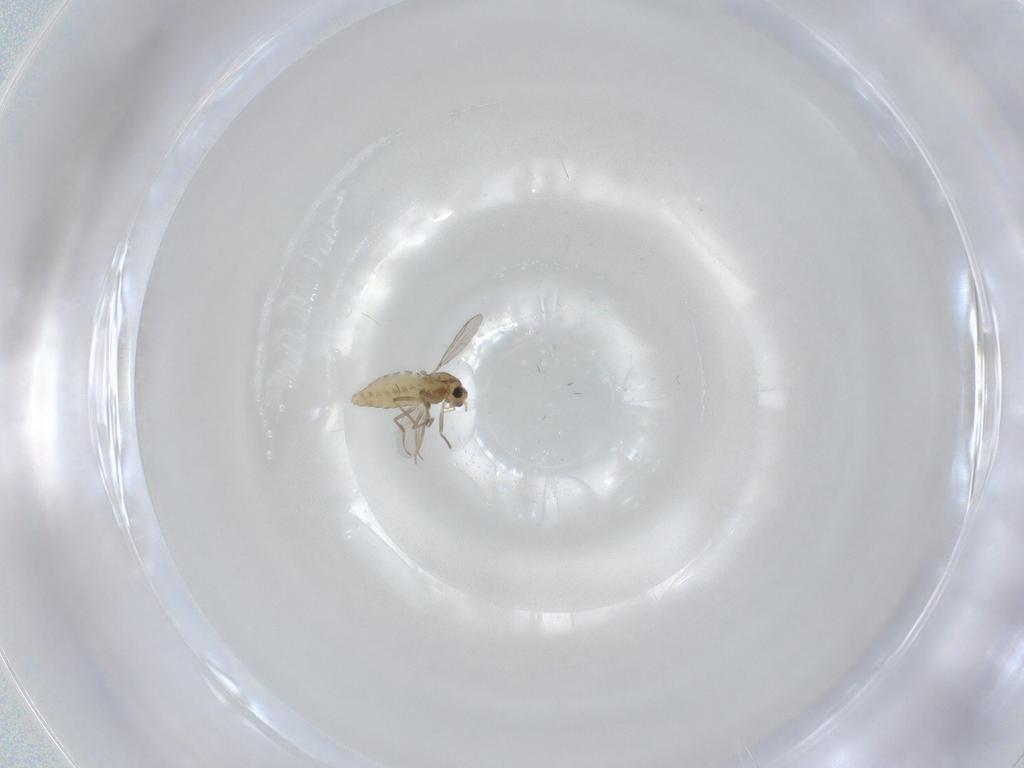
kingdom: Animalia
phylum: Arthropoda
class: Insecta
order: Diptera
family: Chironomidae
